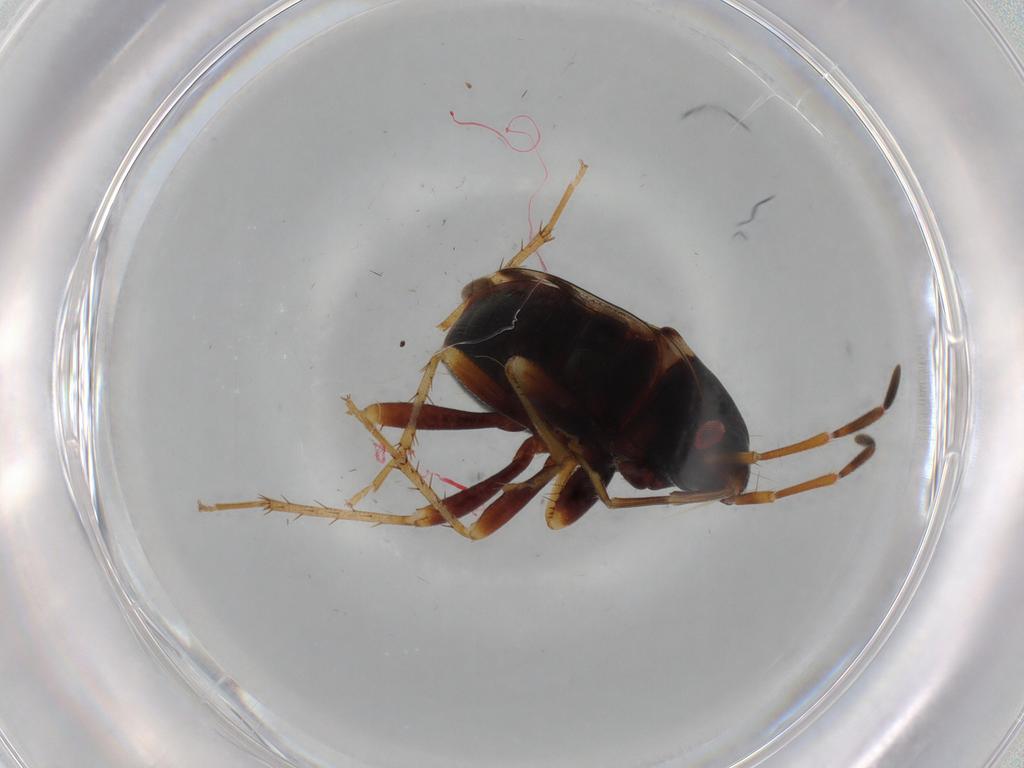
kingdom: Animalia
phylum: Arthropoda
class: Insecta
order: Hemiptera
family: Rhyparochromidae
